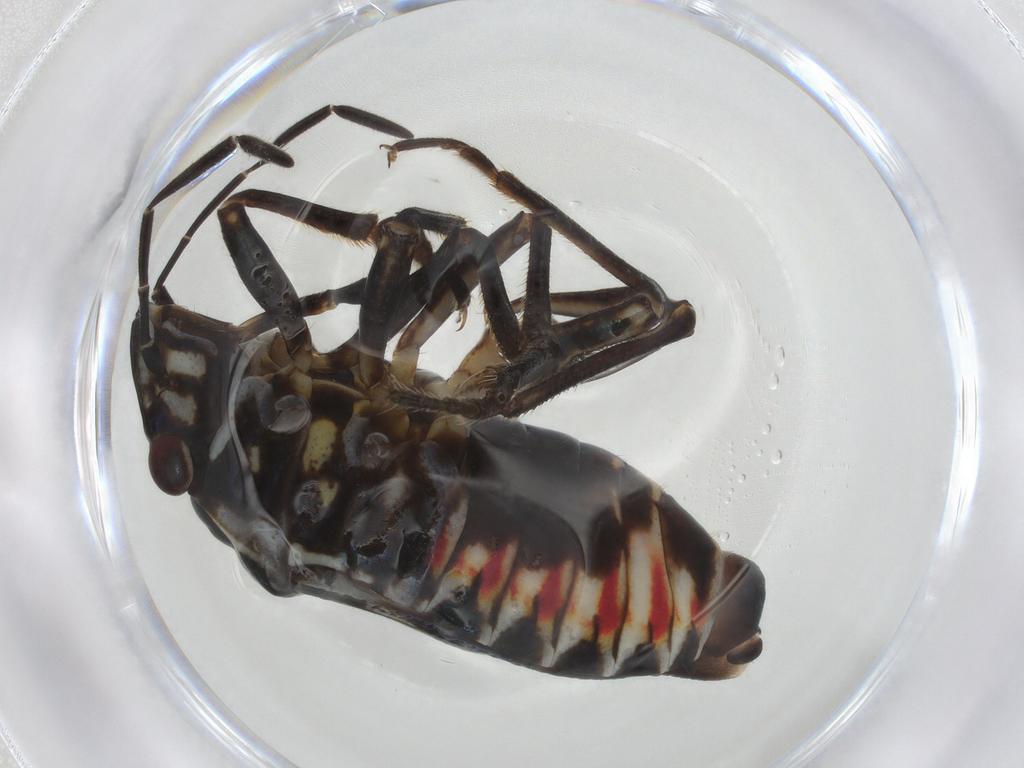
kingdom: Animalia
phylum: Arthropoda
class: Insecta
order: Hemiptera
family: Pentatomidae
